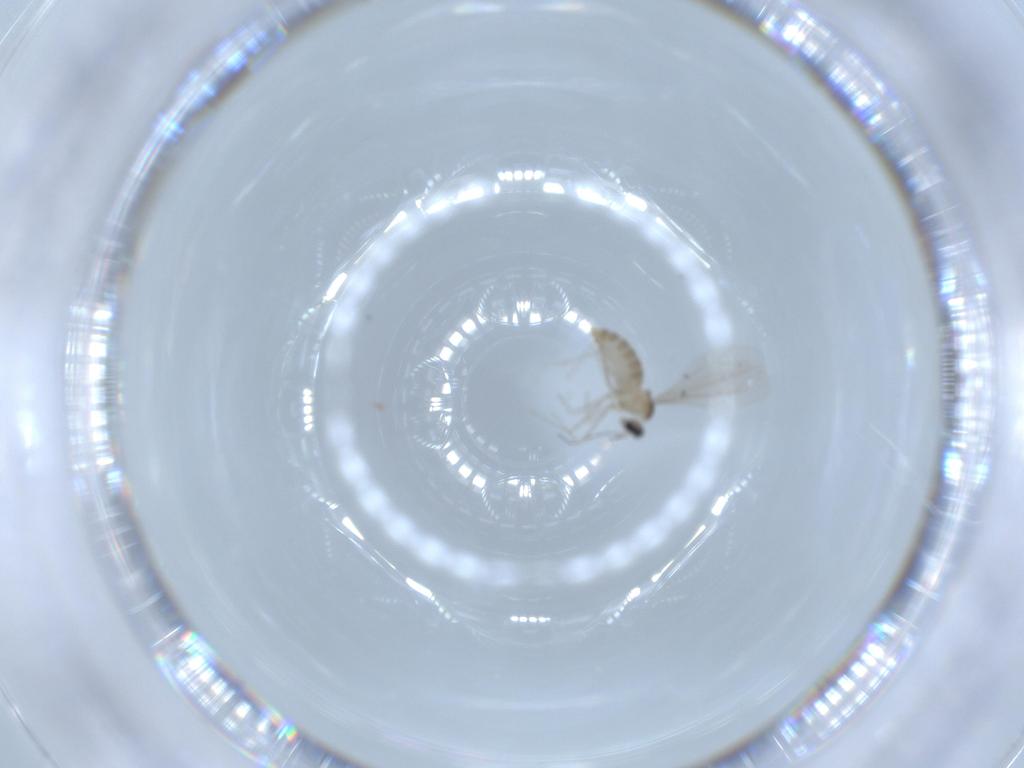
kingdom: Animalia
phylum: Arthropoda
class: Insecta
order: Diptera
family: Cecidomyiidae
